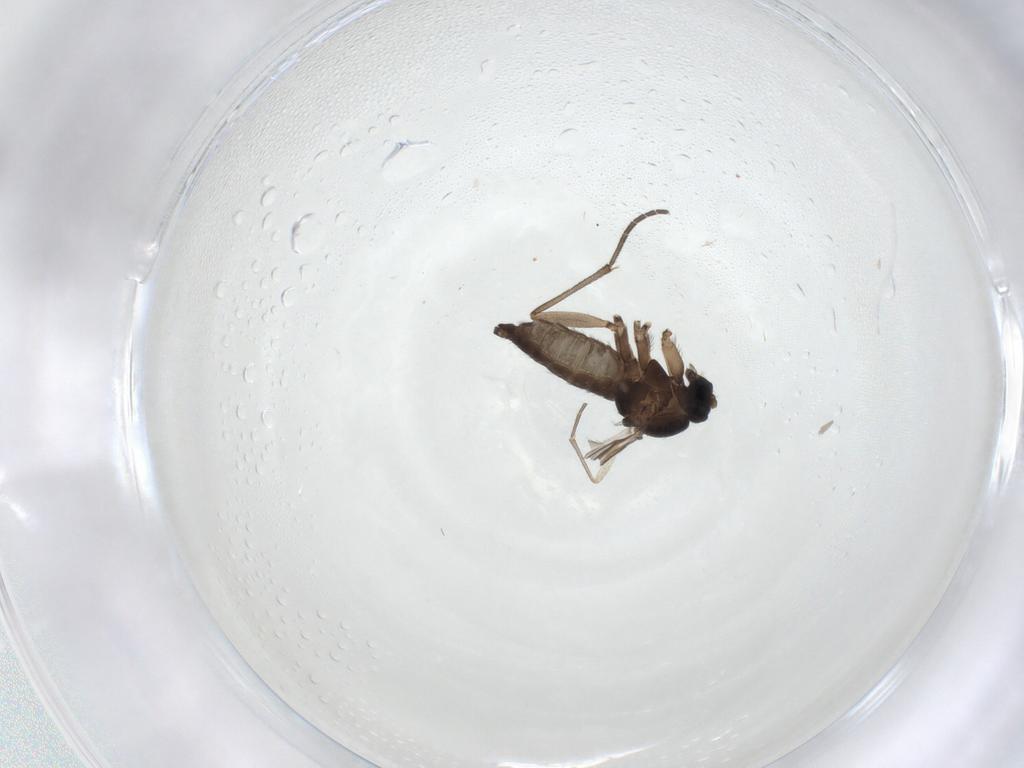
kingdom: Animalia
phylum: Arthropoda
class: Insecta
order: Diptera
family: Sciaridae
